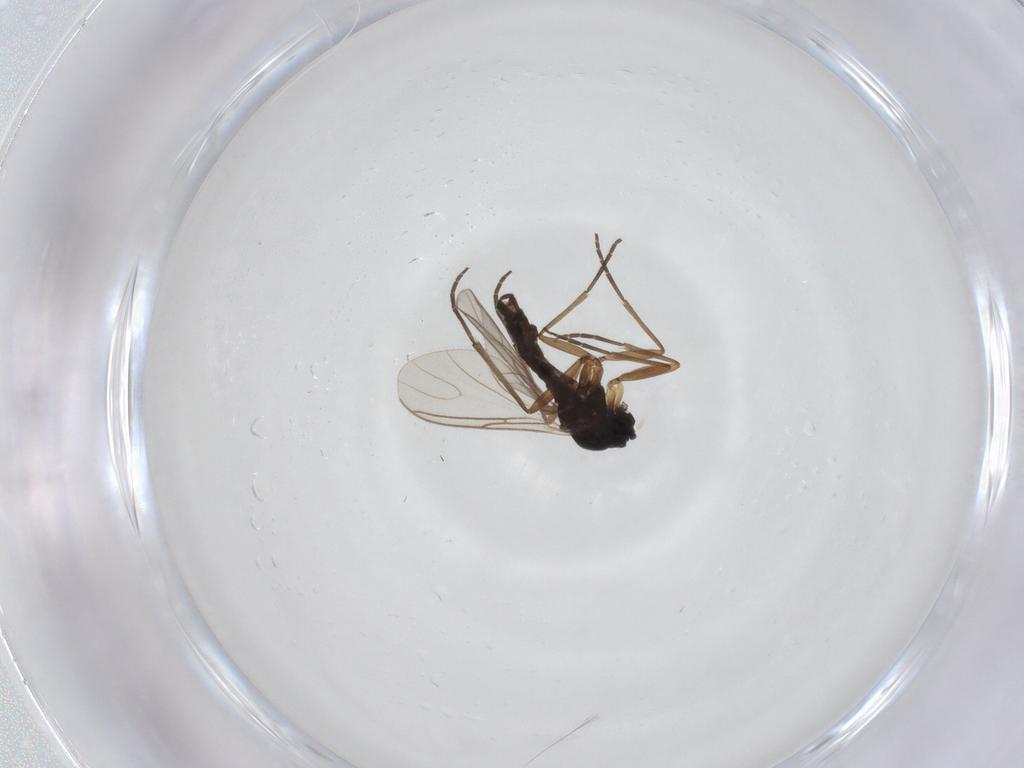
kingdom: Animalia
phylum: Arthropoda
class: Insecta
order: Diptera
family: Sciaridae
